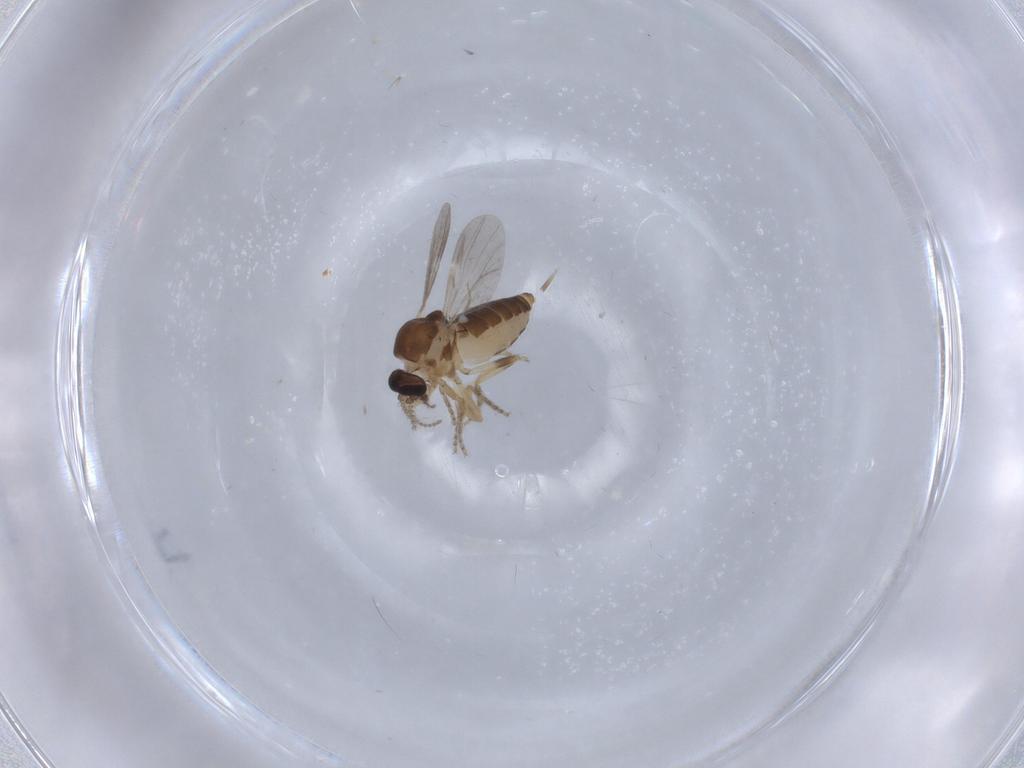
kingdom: Animalia
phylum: Arthropoda
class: Insecta
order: Diptera
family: Ceratopogonidae
